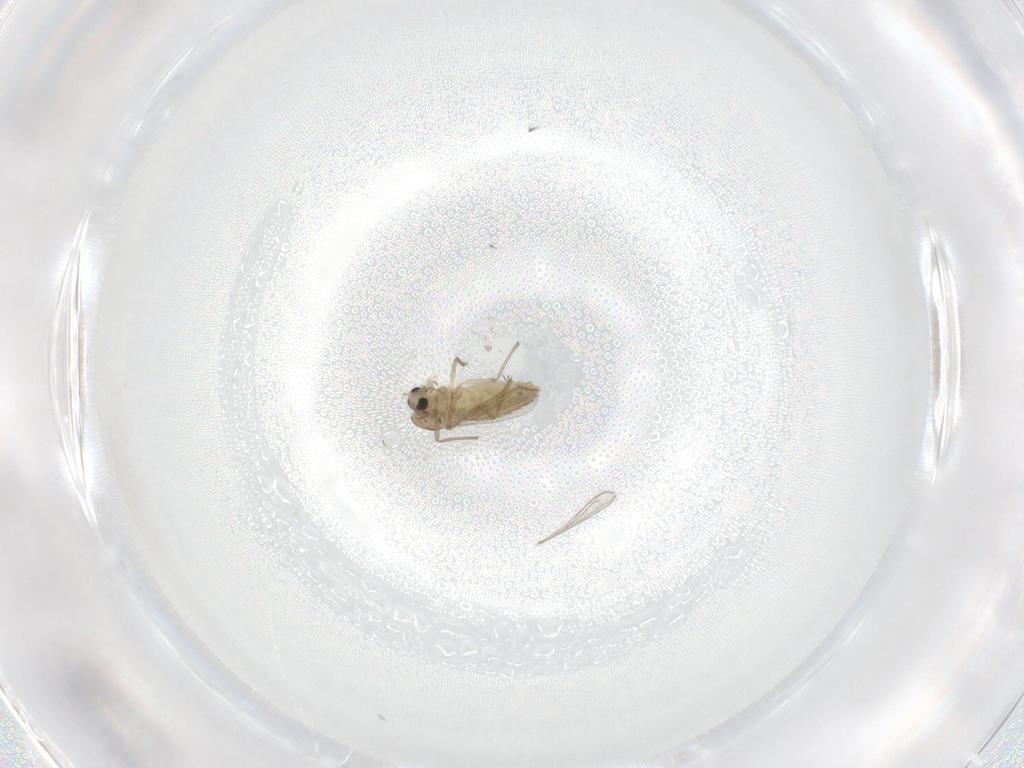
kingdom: Animalia
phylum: Arthropoda
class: Insecta
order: Diptera
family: Chironomidae
